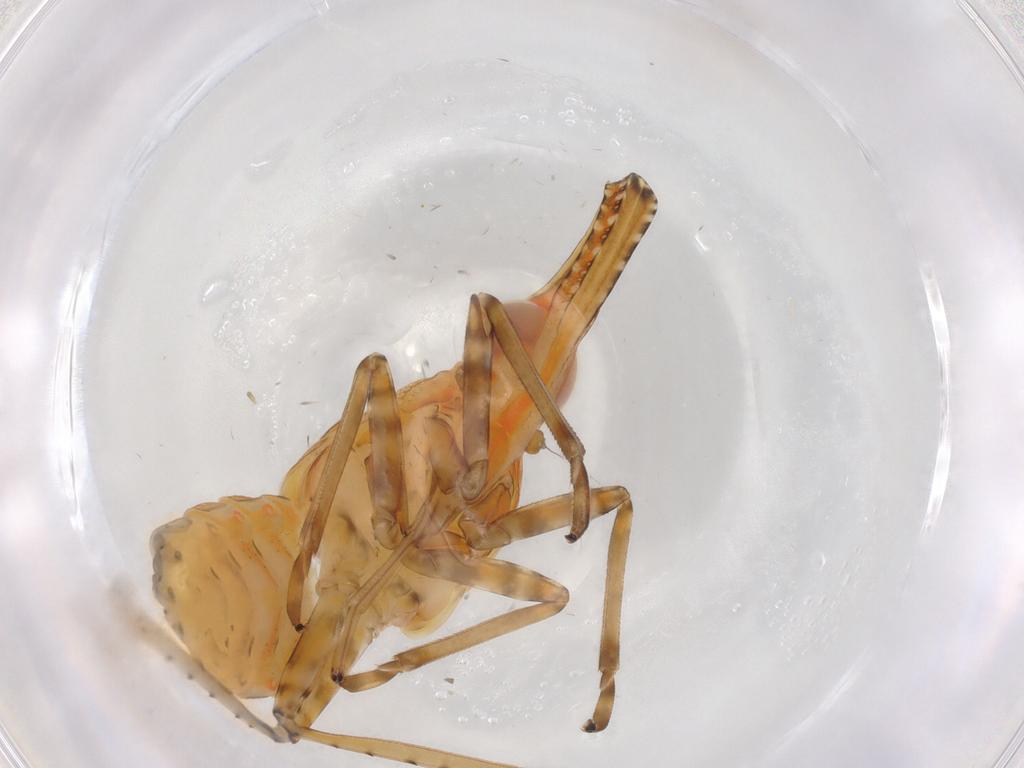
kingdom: Animalia
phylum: Arthropoda
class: Insecta
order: Hemiptera
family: Fulgoroidea_incertae_sedis
